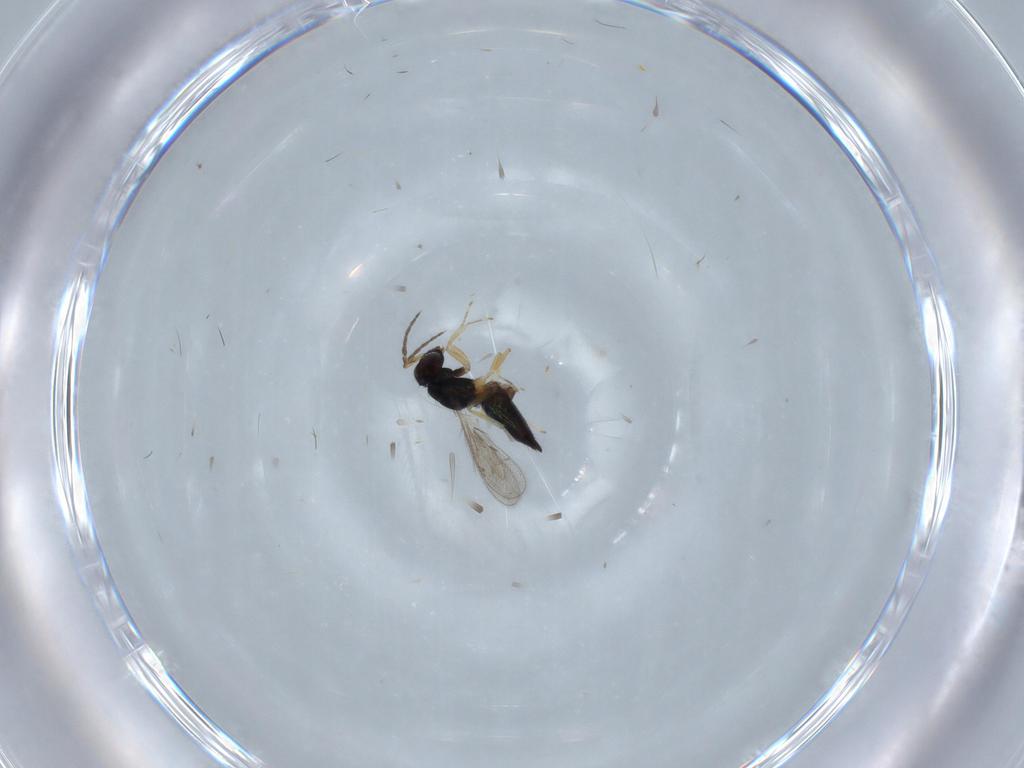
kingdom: Animalia
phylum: Arthropoda
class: Insecta
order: Hymenoptera
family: Eulophidae
